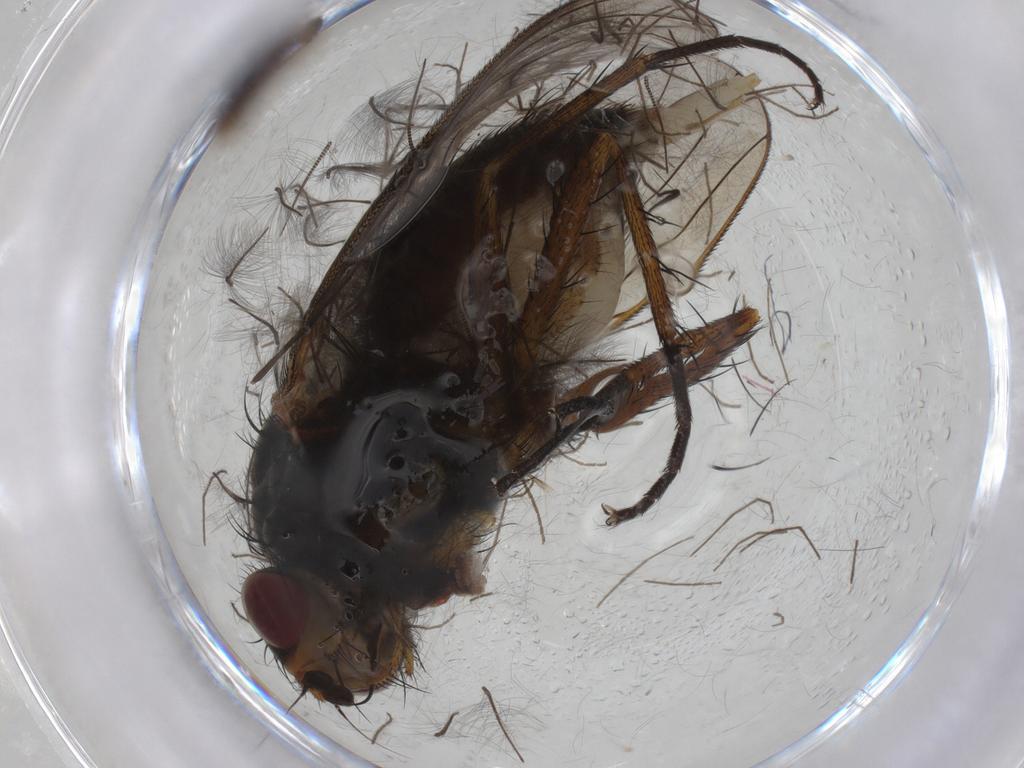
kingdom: Animalia
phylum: Arthropoda
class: Insecta
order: Diptera
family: Anthomyiidae
